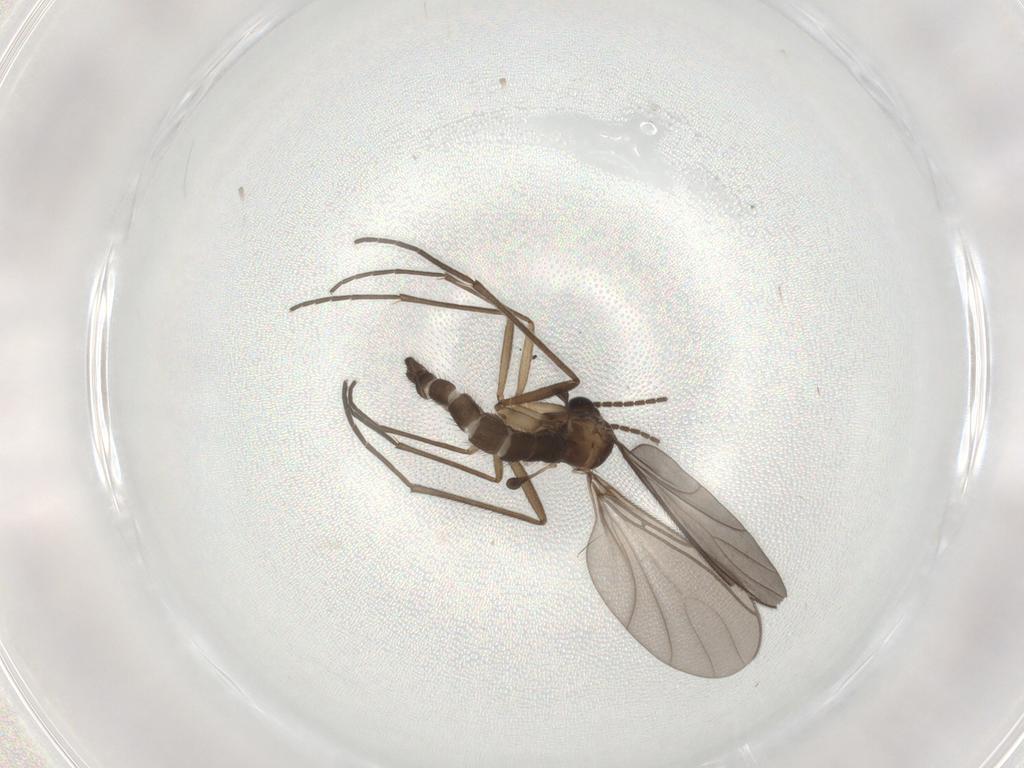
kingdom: Animalia
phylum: Arthropoda
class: Insecta
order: Diptera
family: Sciaridae
